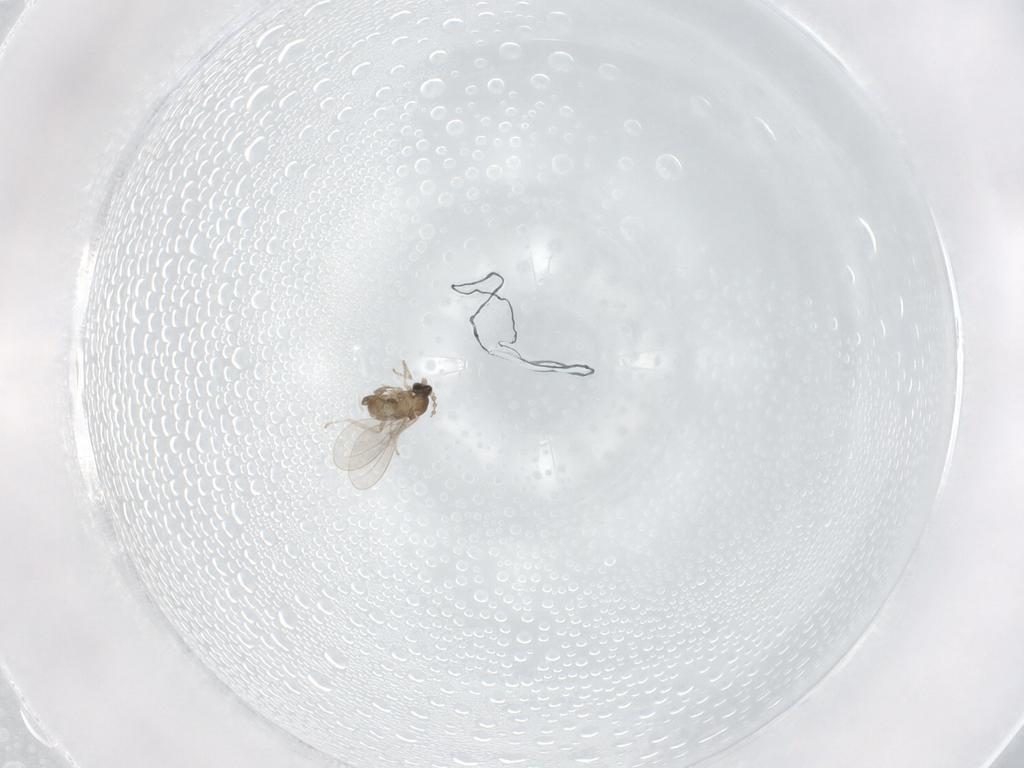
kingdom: Animalia
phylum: Arthropoda
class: Insecta
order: Diptera
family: Cecidomyiidae
